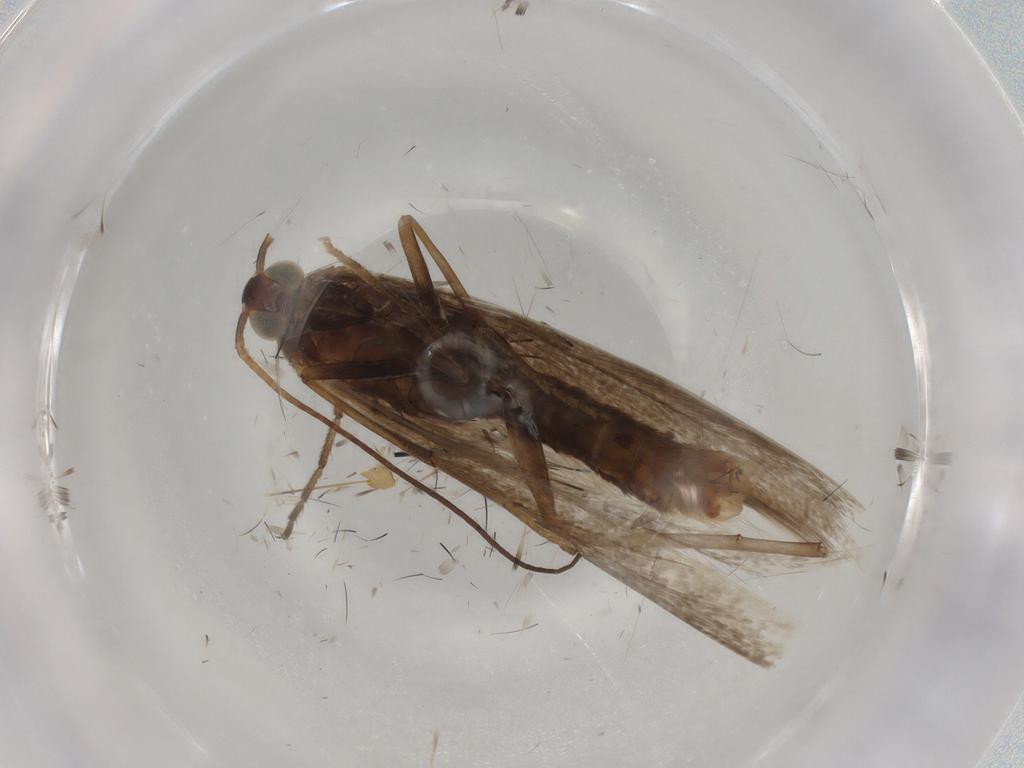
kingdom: Animalia
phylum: Arthropoda
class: Insecta
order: Lepidoptera
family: Coleophoridae
